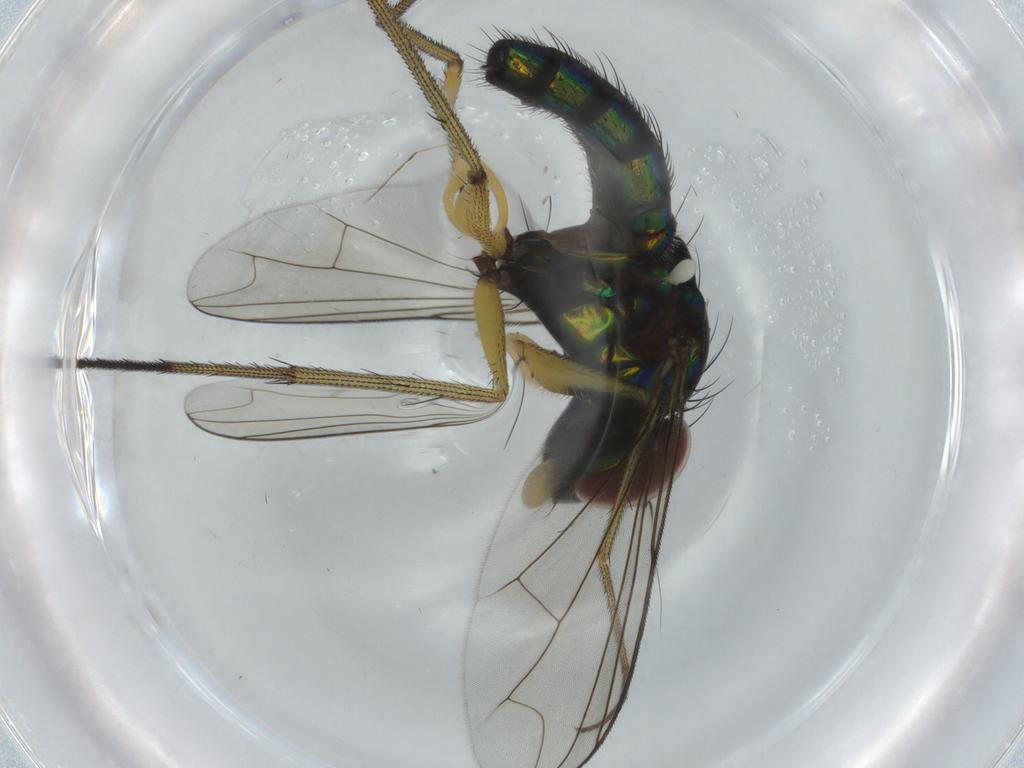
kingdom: Animalia
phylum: Arthropoda
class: Insecta
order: Diptera
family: Dolichopodidae
